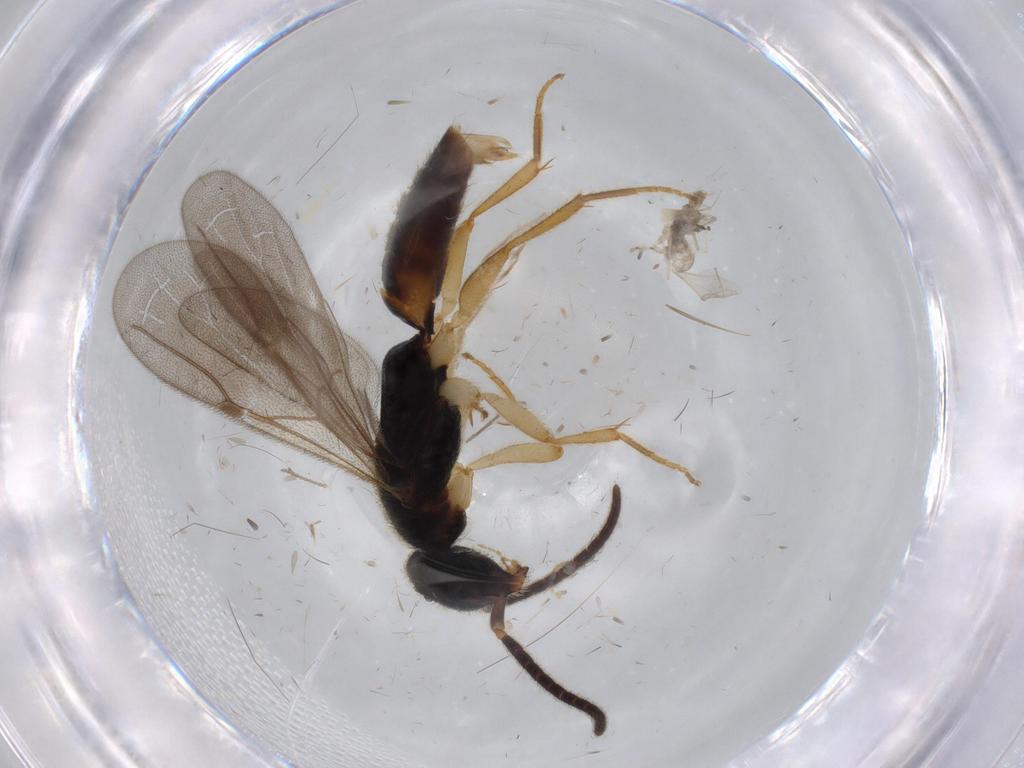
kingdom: Animalia
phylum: Arthropoda
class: Insecta
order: Hymenoptera
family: Bethylidae
